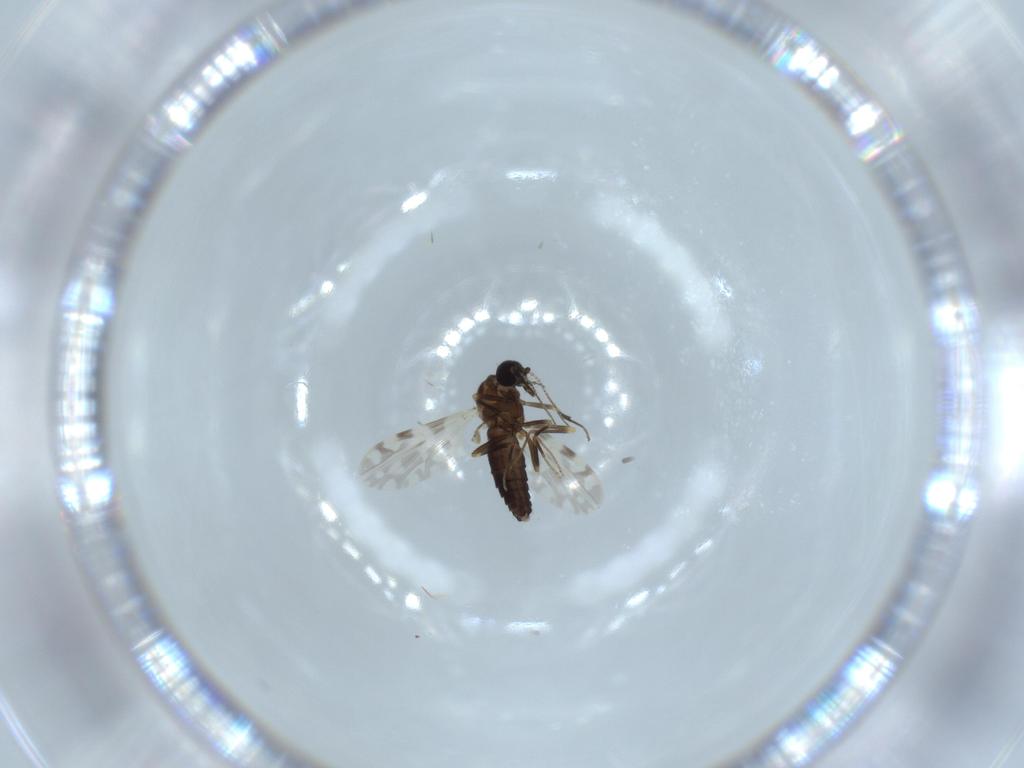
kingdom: Animalia
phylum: Arthropoda
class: Insecta
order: Diptera
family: Ceratopogonidae
